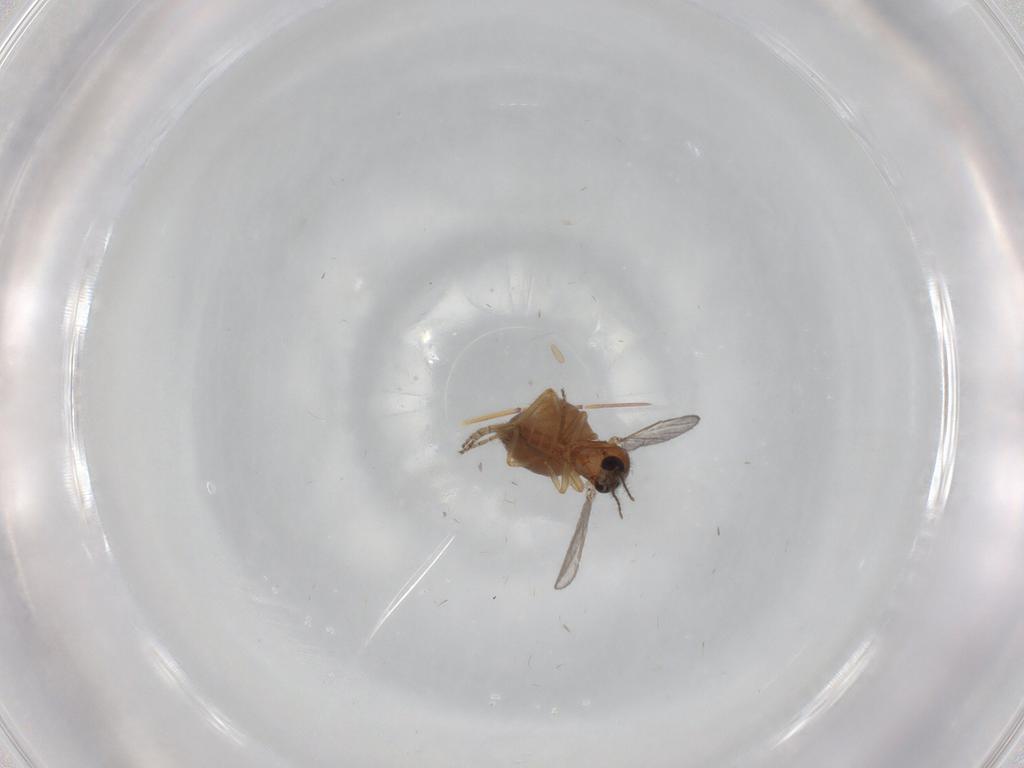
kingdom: Animalia
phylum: Arthropoda
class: Insecta
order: Diptera
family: Ceratopogonidae
